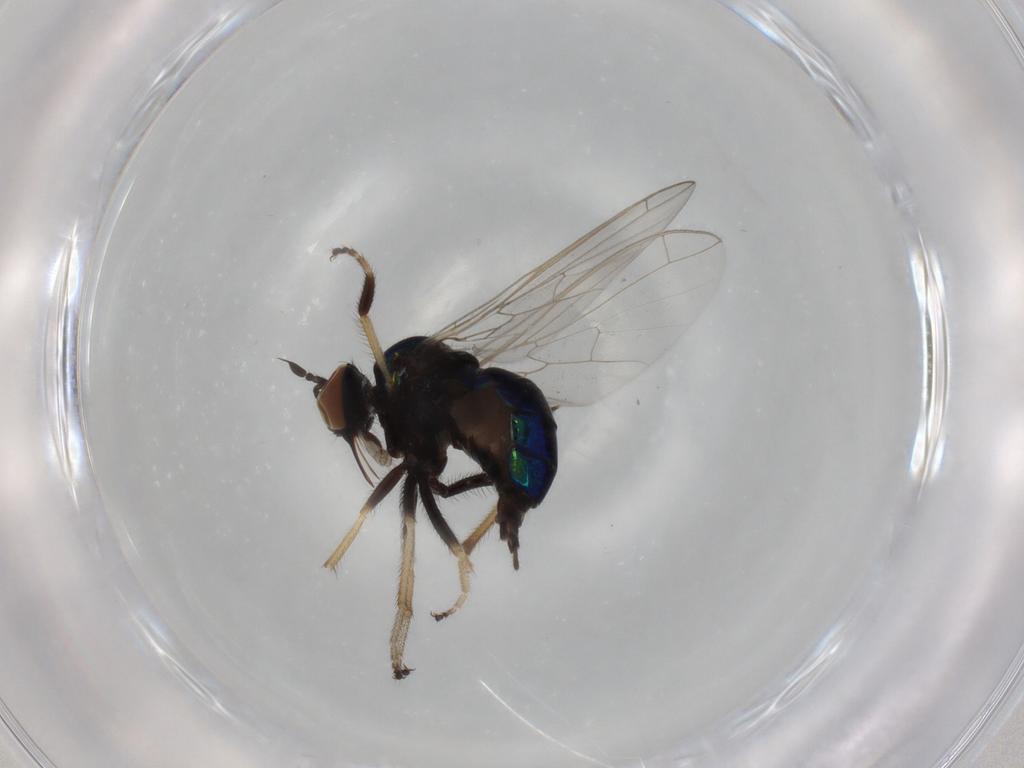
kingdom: Animalia
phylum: Arthropoda
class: Insecta
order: Diptera
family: Empididae
